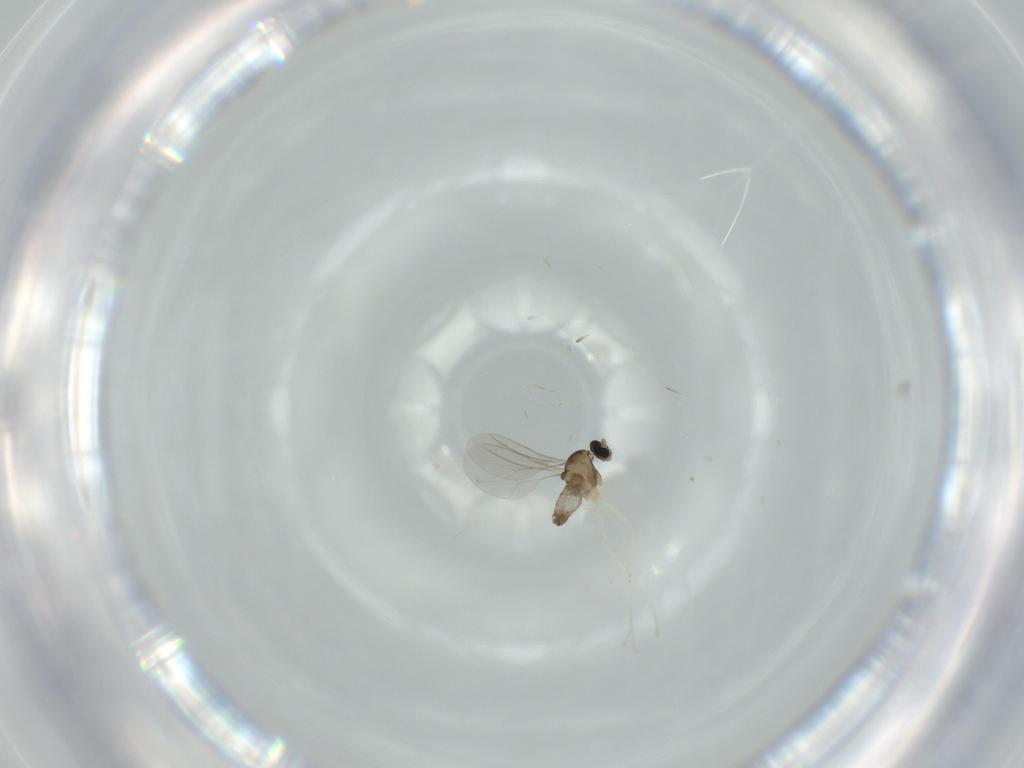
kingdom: Animalia
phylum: Arthropoda
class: Insecta
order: Diptera
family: Cecidomyiidae
